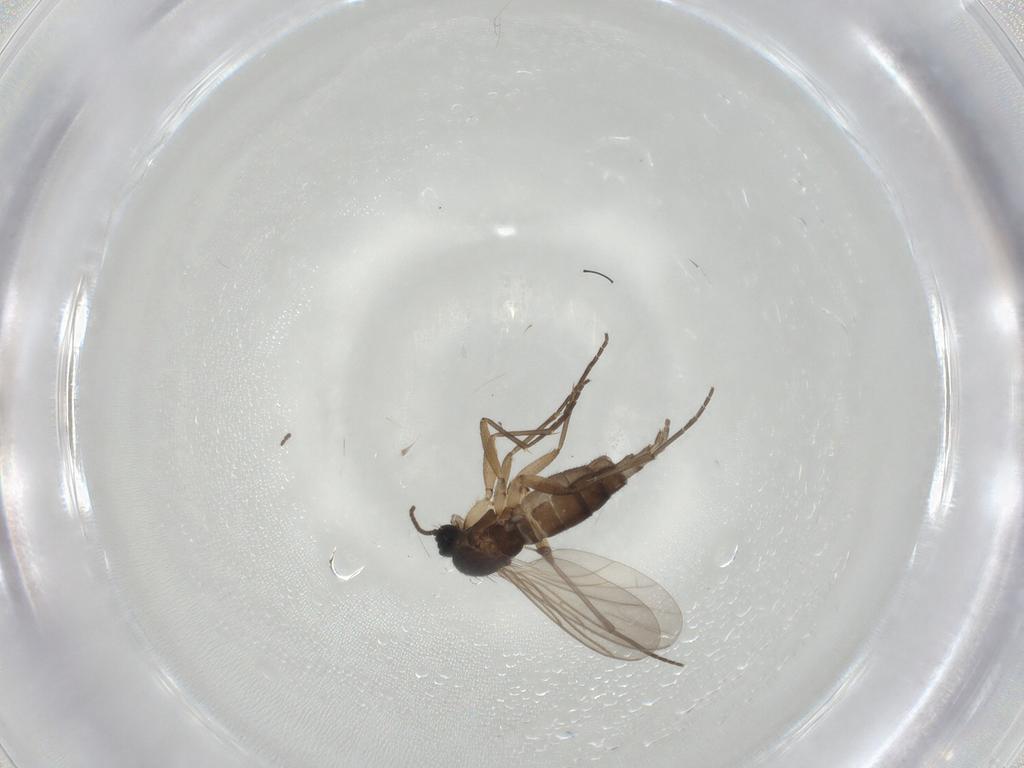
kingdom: Animalia
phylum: Arthropoda
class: Insecta
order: Diptera
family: Sciaridae
